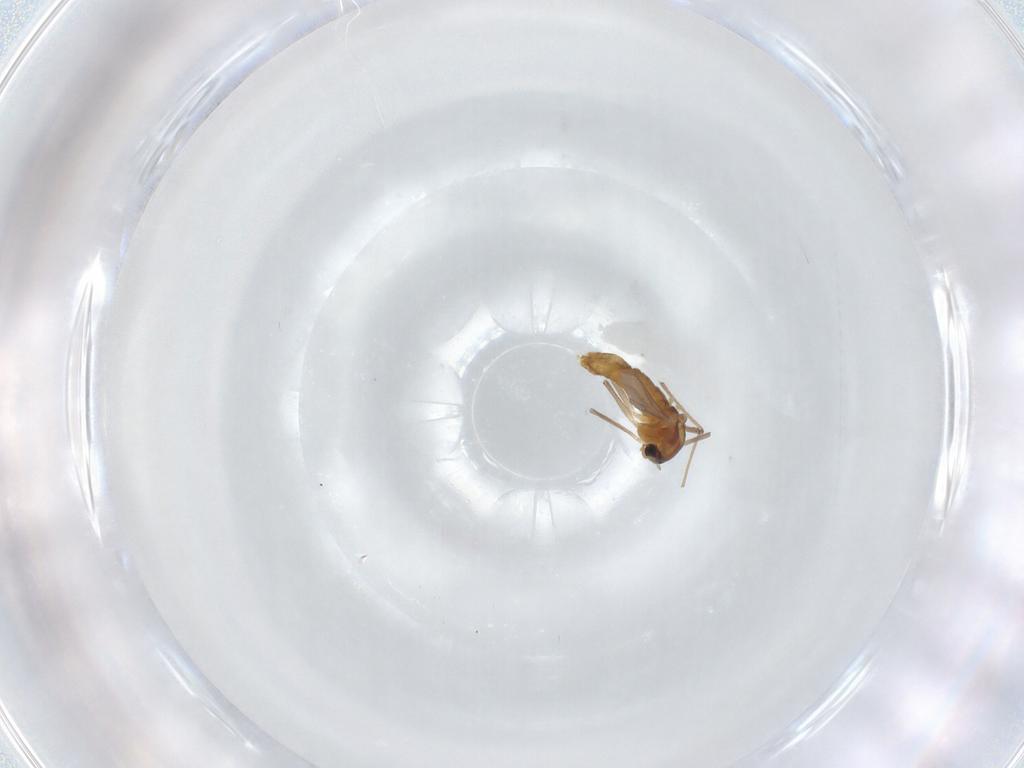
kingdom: Animalia
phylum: Arthropoda
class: Insecta
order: Diptera
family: Chironomidae
